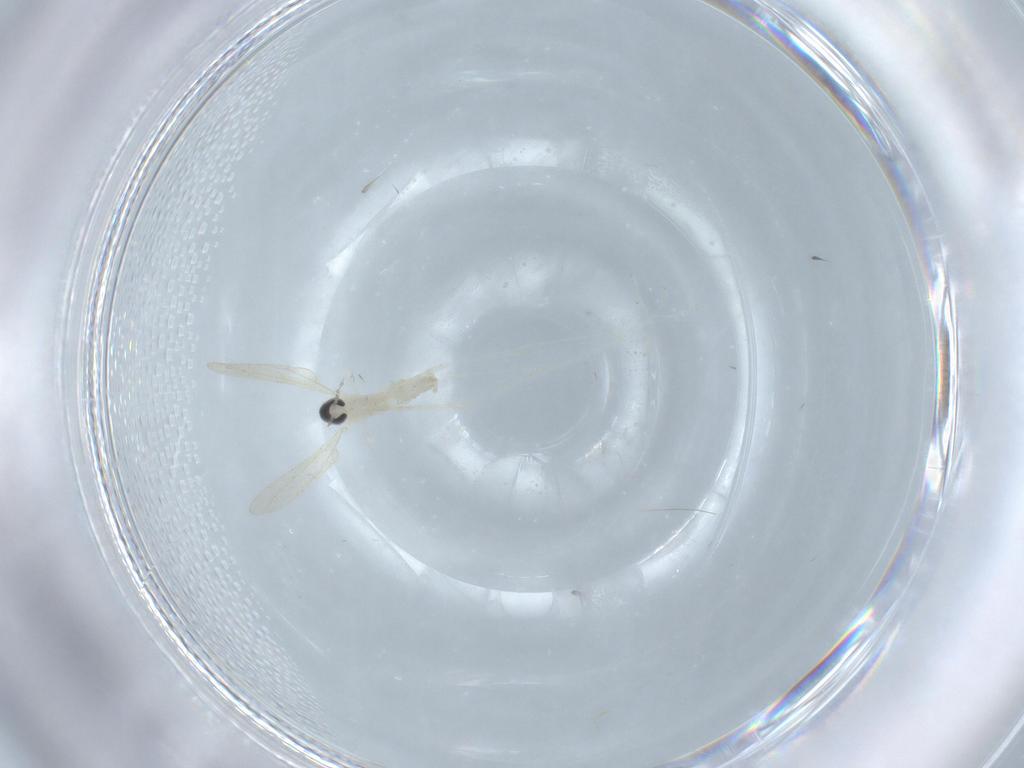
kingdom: Animalia
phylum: Arthropoda
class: Insecta
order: Diptera
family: Cecidomyiidae
